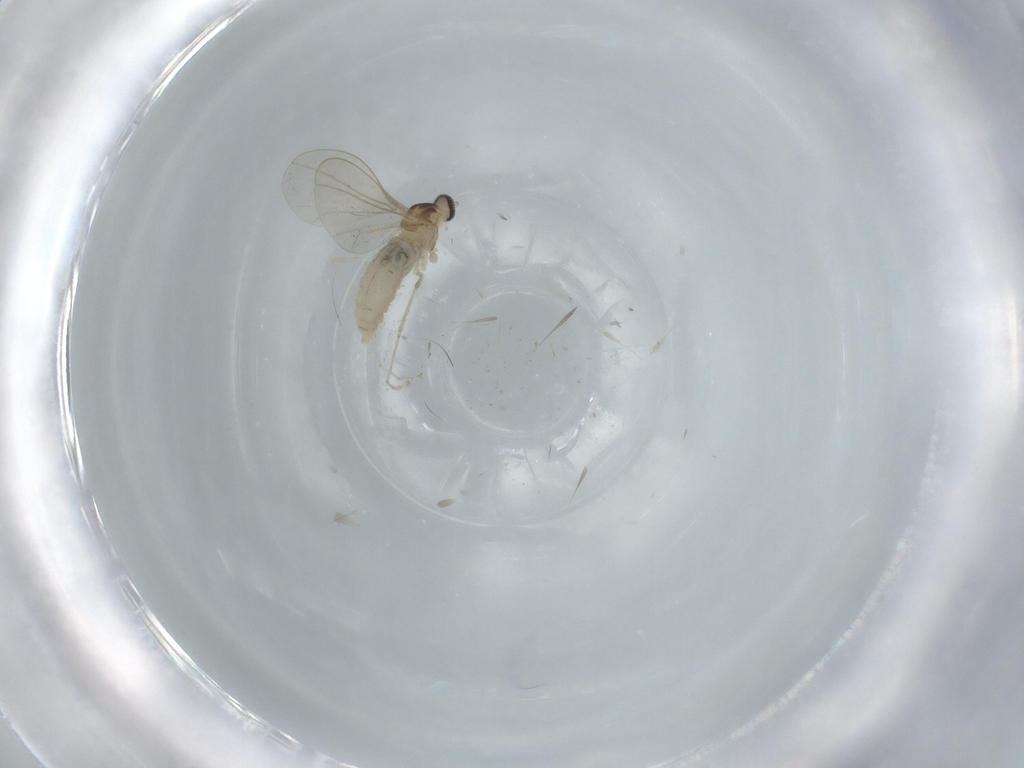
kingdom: Animalia
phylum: Arthropoda
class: Insecta
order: Diptera
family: Cecidomyiidae
